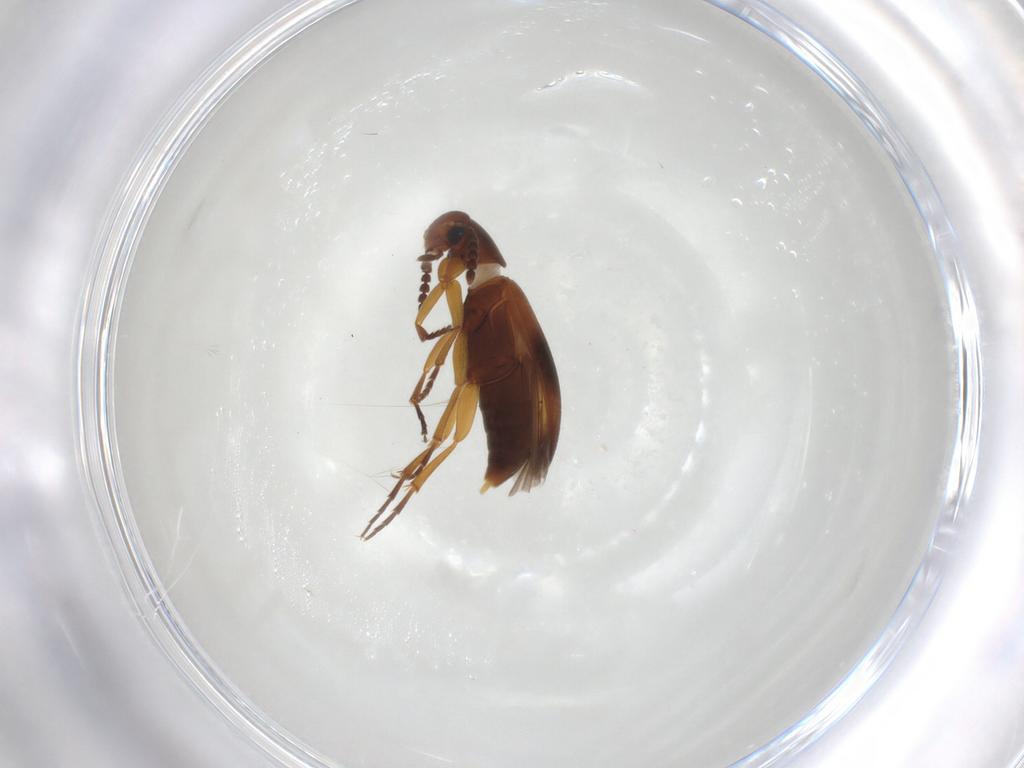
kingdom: Animalia
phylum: Arthropoda
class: Insecta
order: Coleoptera
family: Scraptiidae
